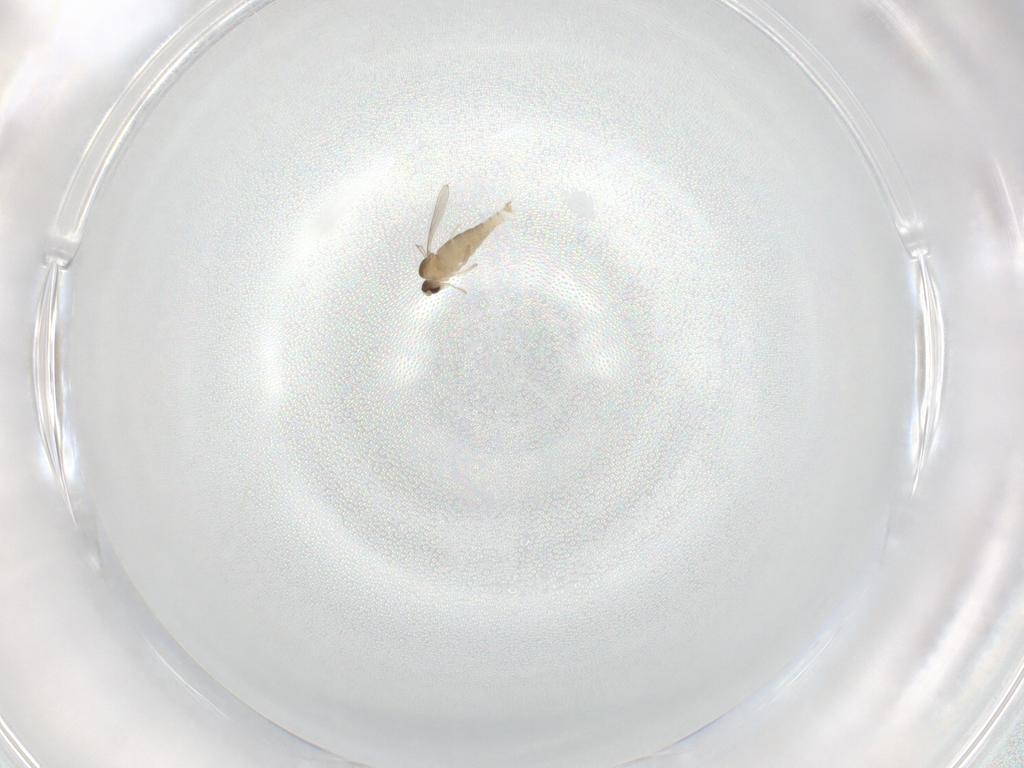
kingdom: Animalia
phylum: Arthropoda
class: Insecta
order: Diptera
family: Cecidomyiidae
